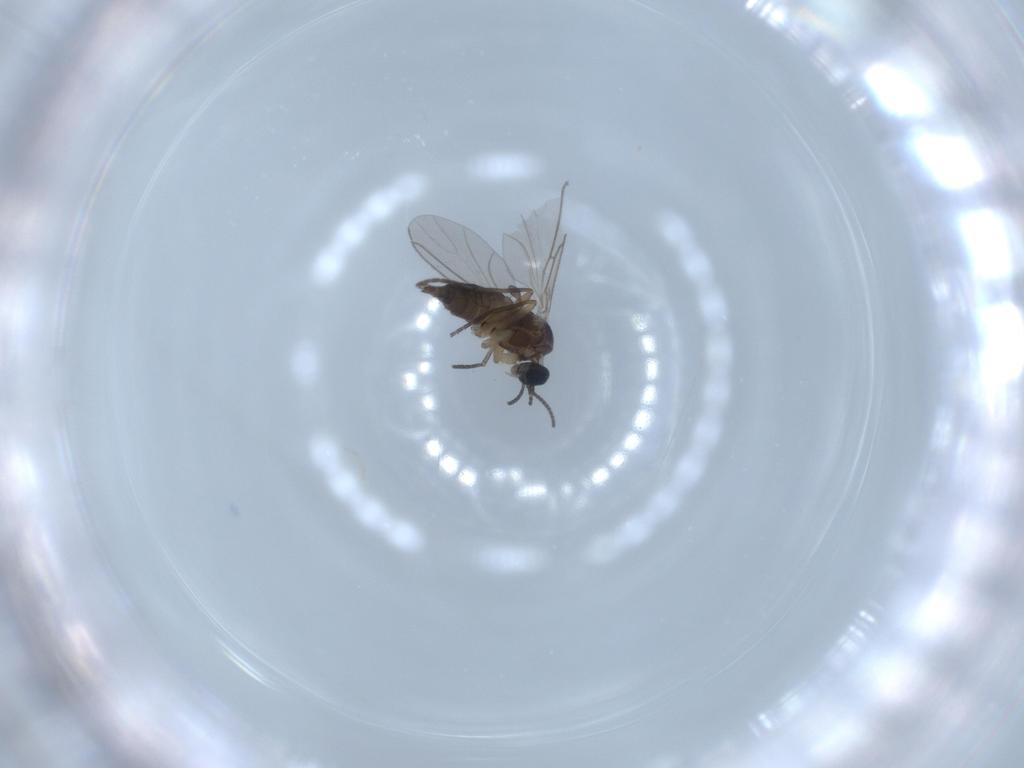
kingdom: Animalia
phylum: Arthropoda
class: Insecta
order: Diptera
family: Sciaridae
